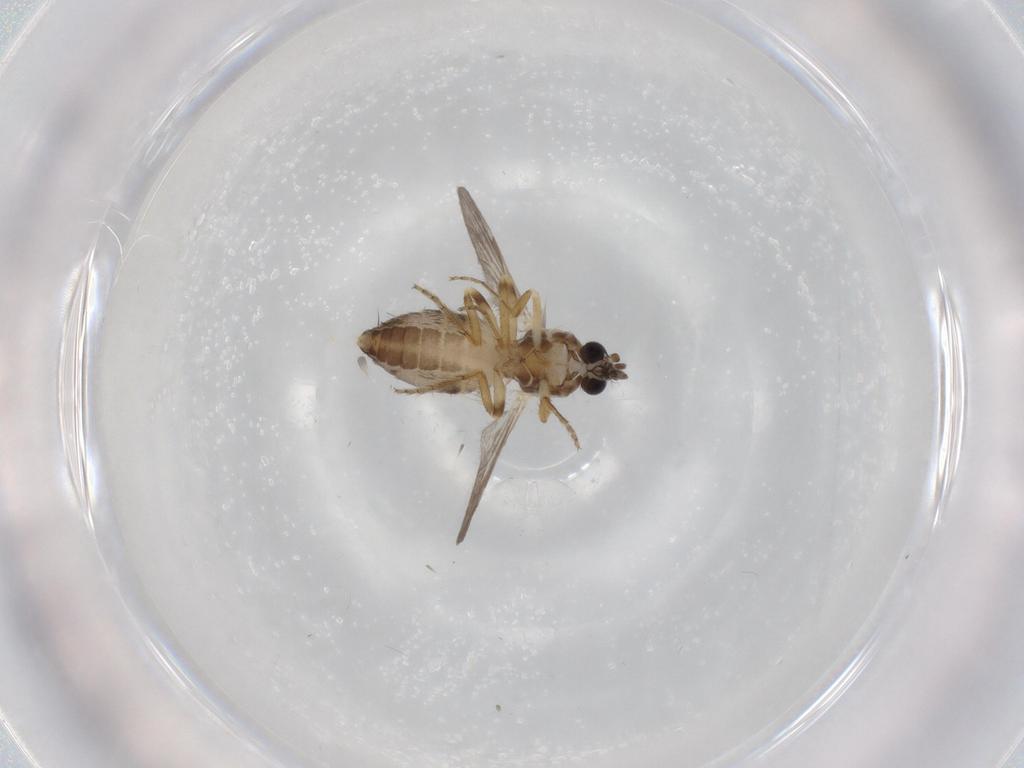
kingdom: Animalia
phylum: Arthropoda
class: Insecta
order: Diptera
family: Ceratopogonidae
